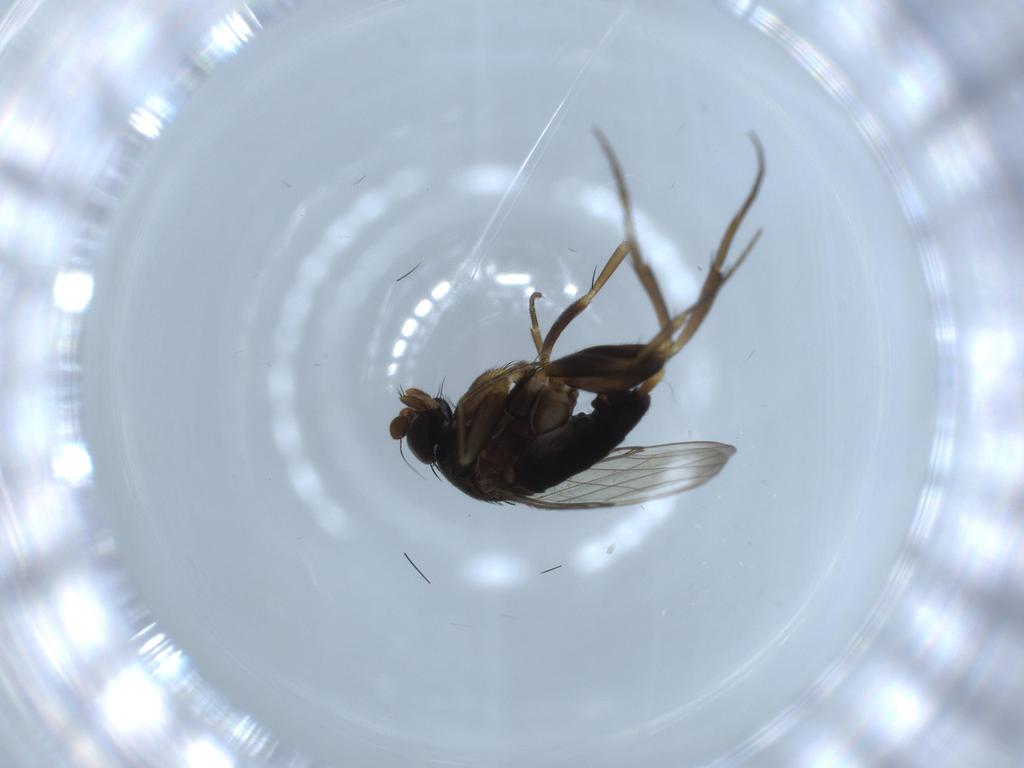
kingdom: Animalia
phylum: Arthropoda
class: Insecta
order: Diptera
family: Phoridae
